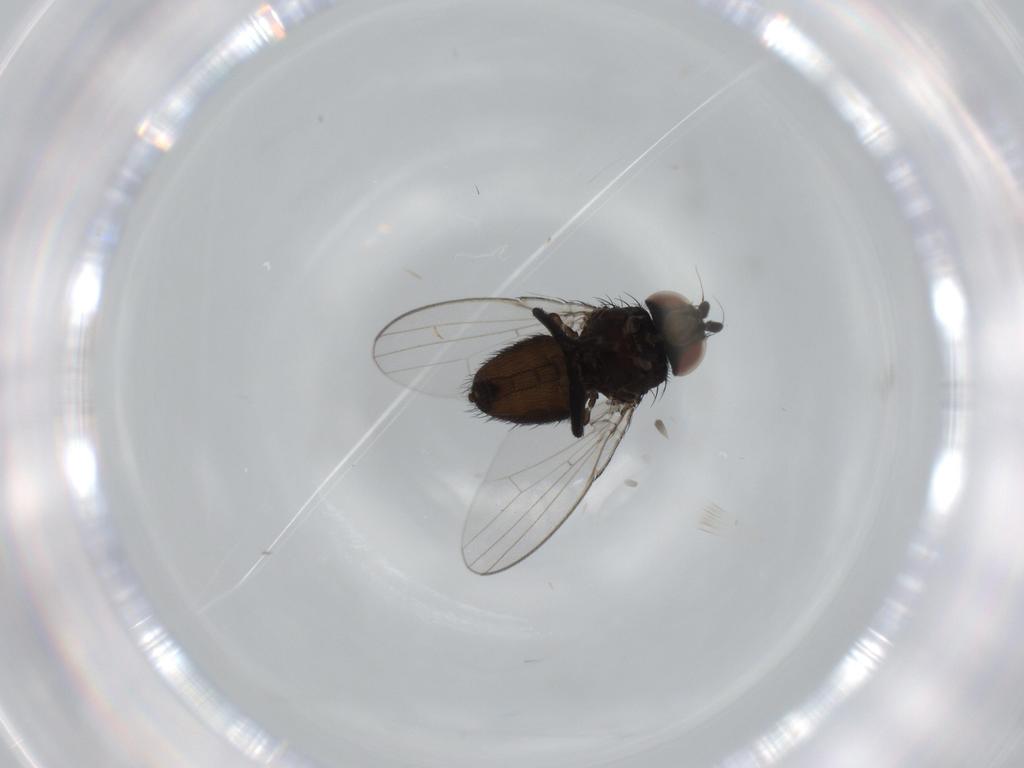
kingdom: Animalia
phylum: Arthropoda
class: Insecta
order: Diptera
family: Milichiidae
